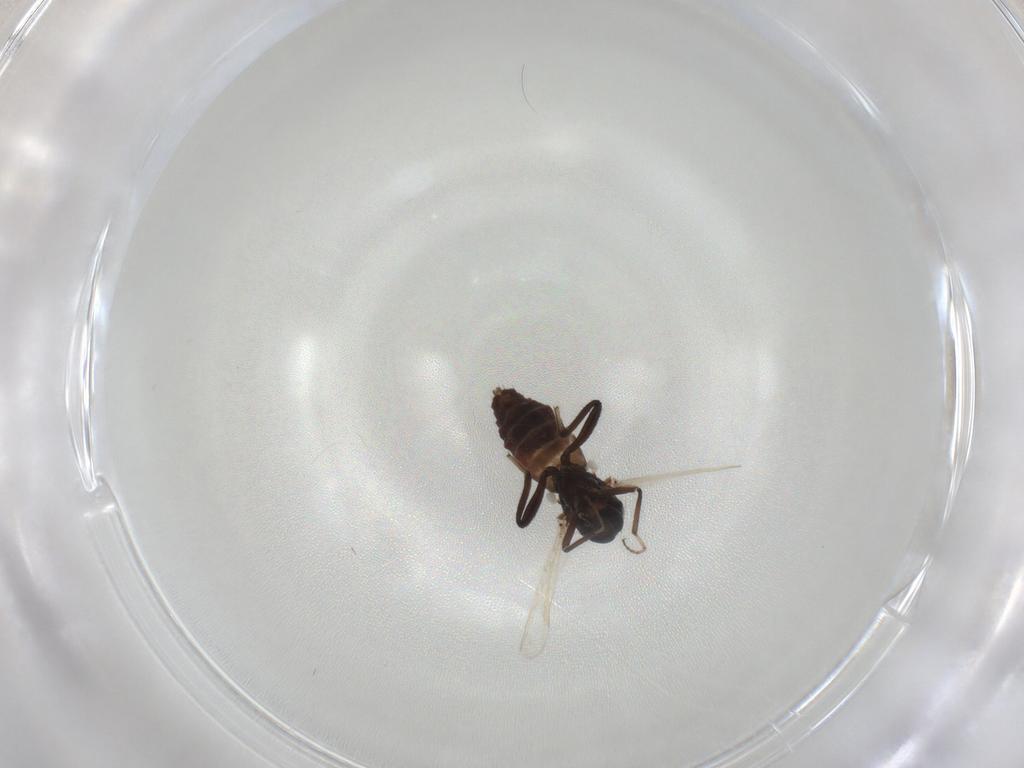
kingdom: Animalia
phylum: Arthropoda
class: Insecta
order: Diptera
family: Ceratopogonidae
